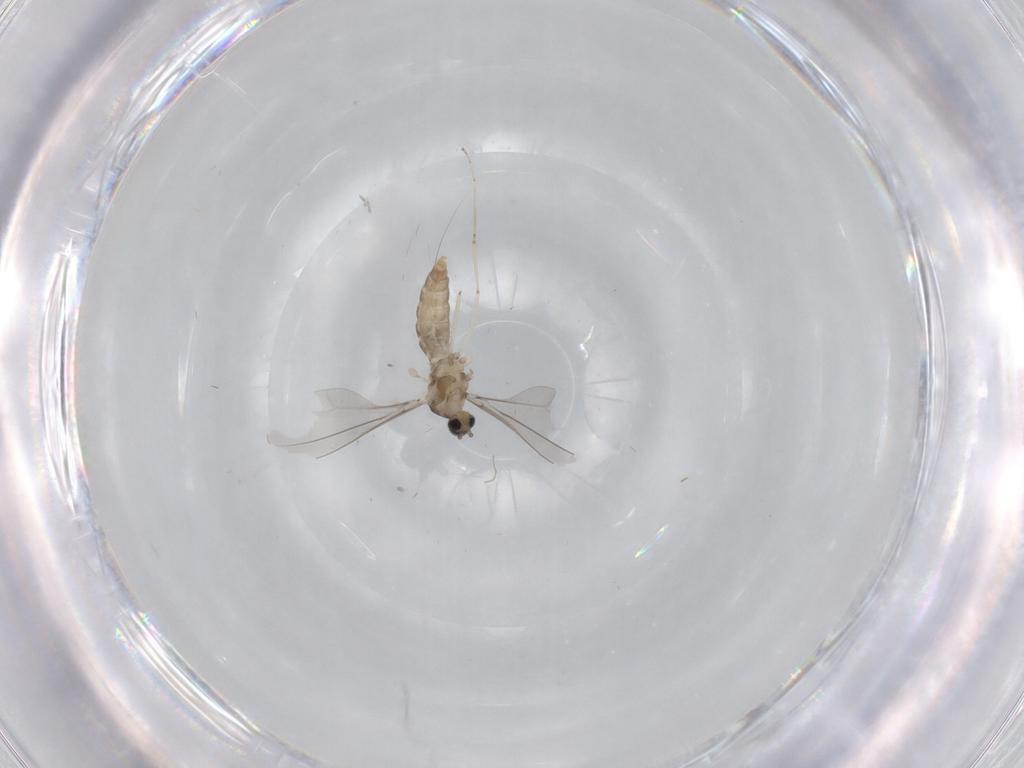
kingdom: Animalia
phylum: Arthropoda
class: Insecta
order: Diptera
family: Cecidomyiidae
